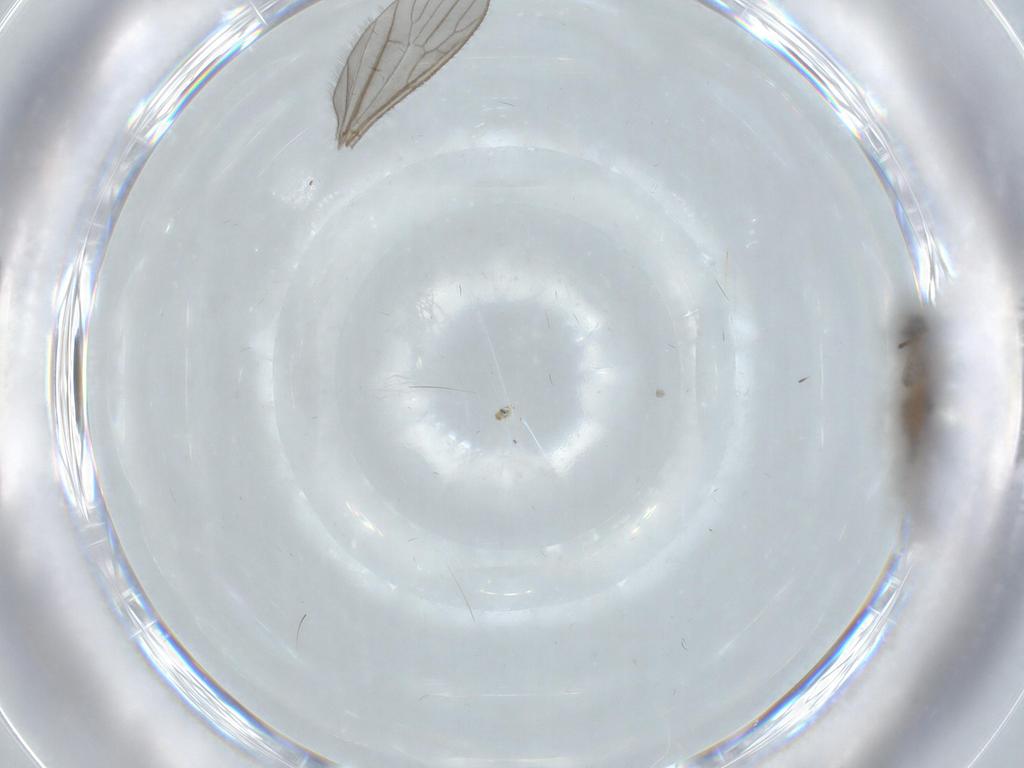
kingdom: Animalia
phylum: Arthropoda
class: Insecta
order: Diptera
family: Limoniidae
